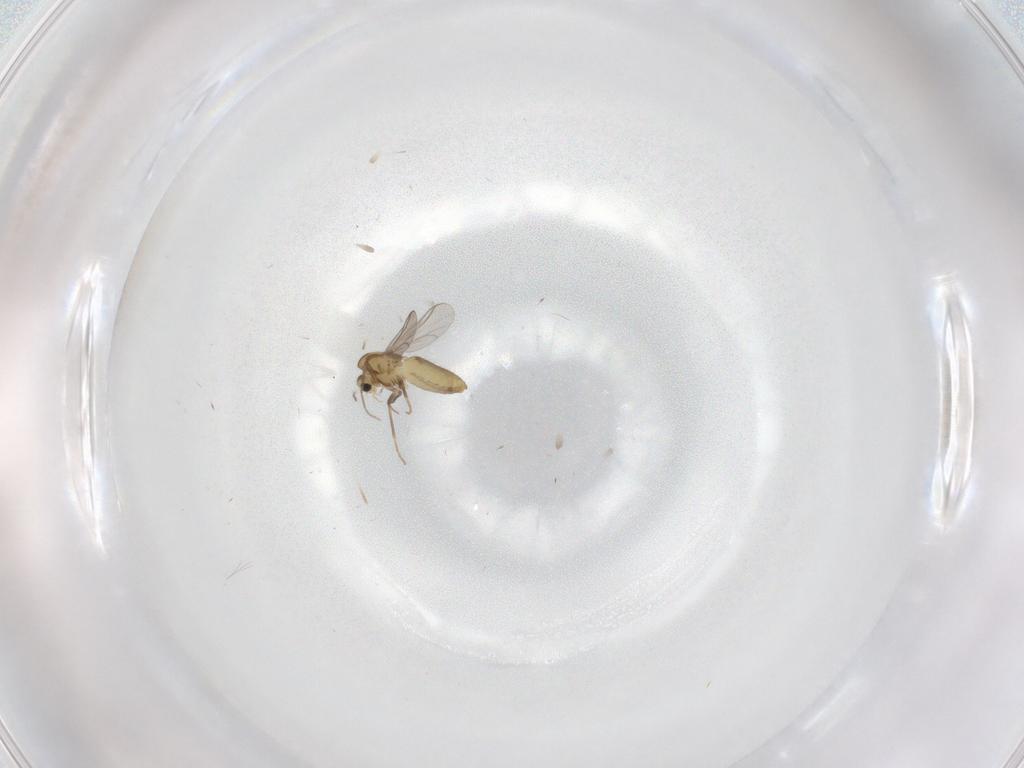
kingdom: Animalia
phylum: Arthropoda
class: Insecta
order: Diptera
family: Chironomidae
